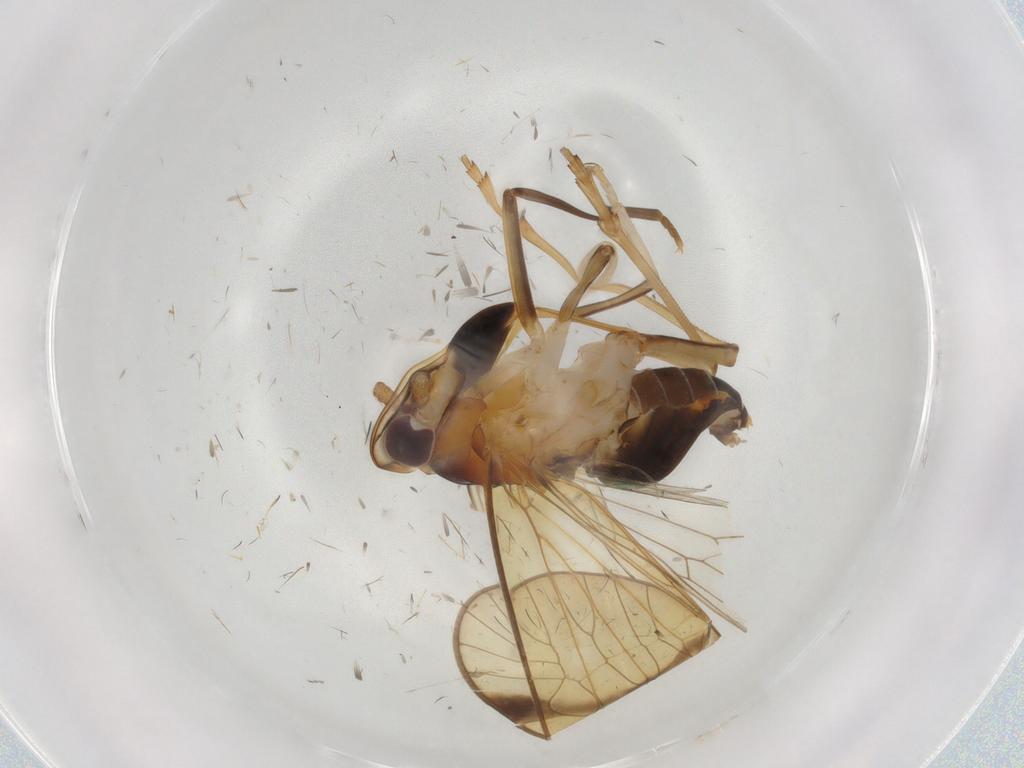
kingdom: Animalia
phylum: Arthropoda
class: Insecta
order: Hemiptera
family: Kinnaridae
